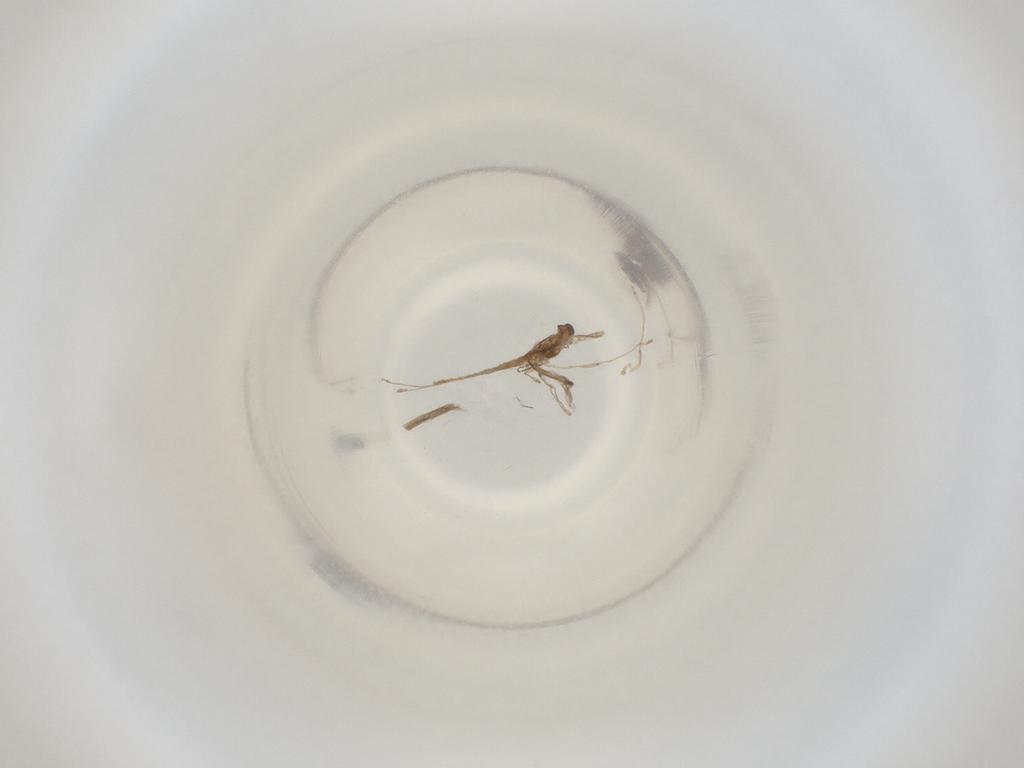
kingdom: Animalia
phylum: Arthropoda
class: Insecta
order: Diptera
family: Cecidomyiidae
